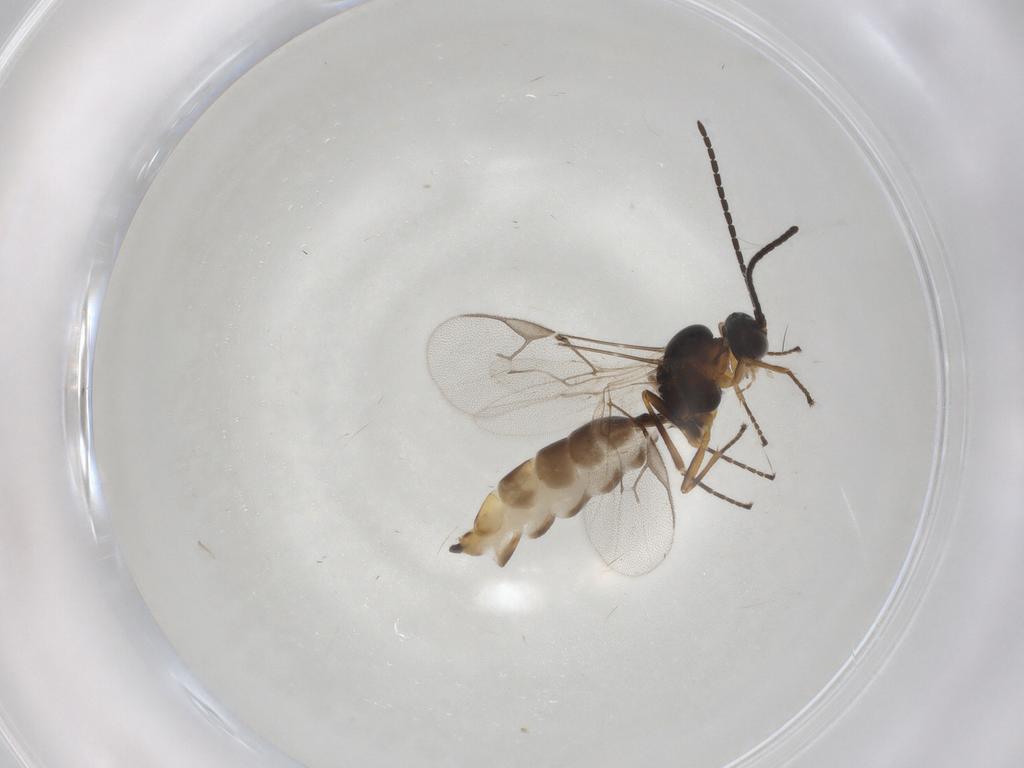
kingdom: Animalia
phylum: Arthropoda
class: Insecta
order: Hymenoptera
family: Braconidae
